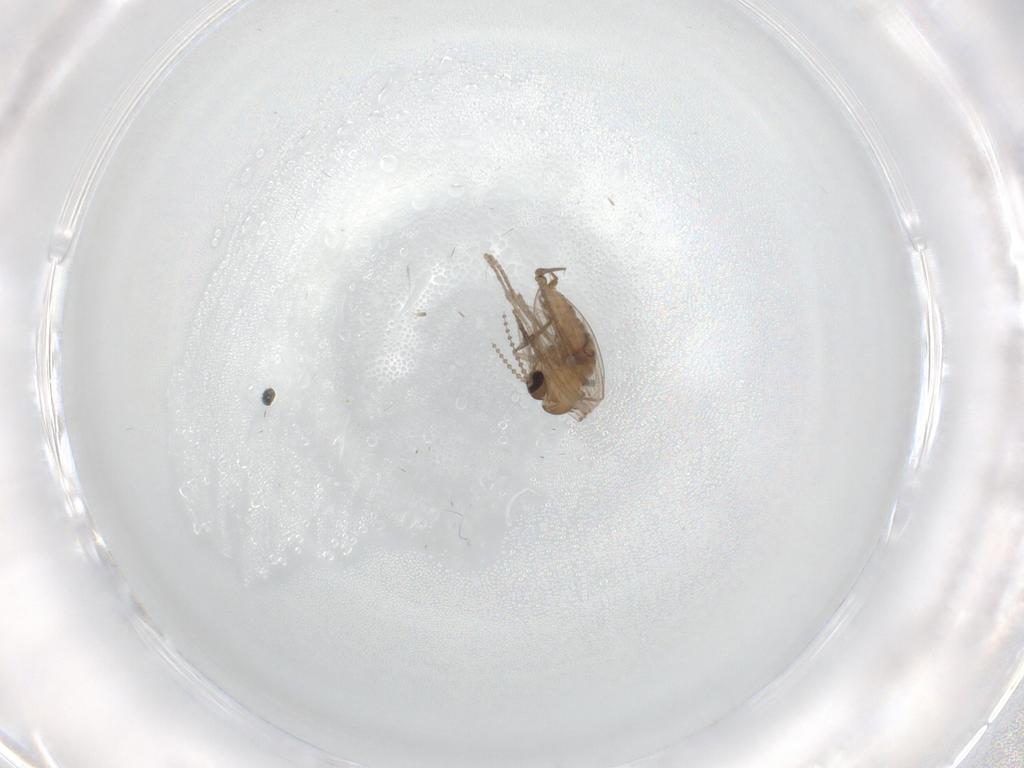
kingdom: Animalia
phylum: Arthropoda
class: Insecta
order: Diptera
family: Psychodidae
